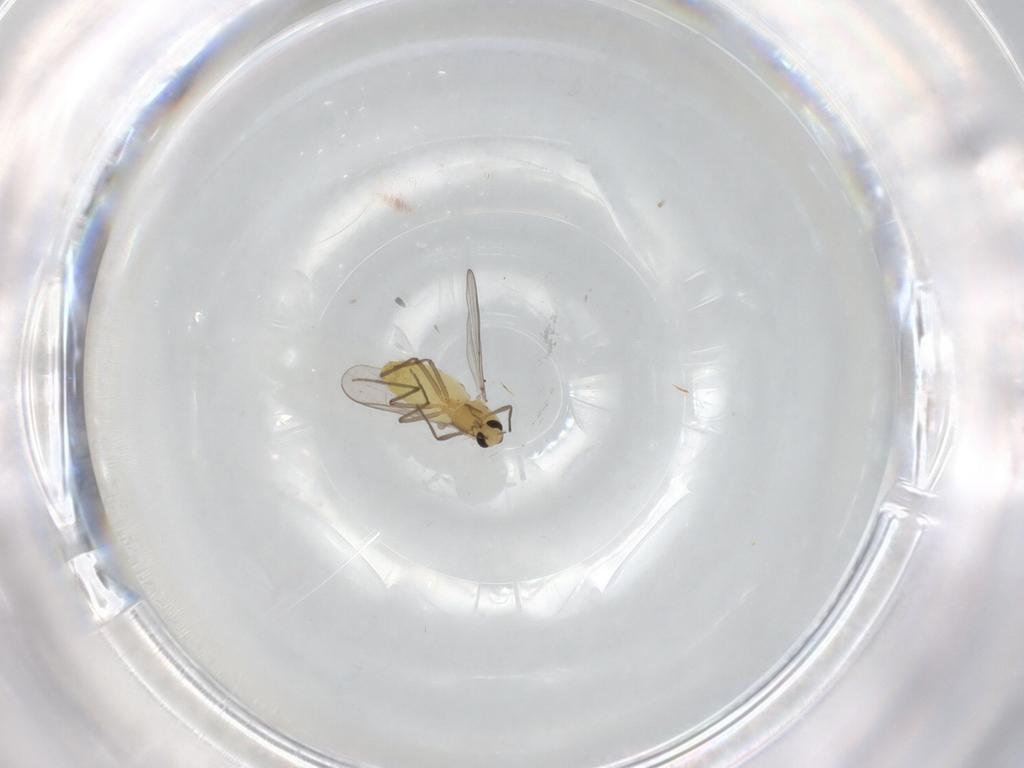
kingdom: Animalia
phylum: Arthropoda
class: Insecta
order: Diptera
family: Chironomidae
